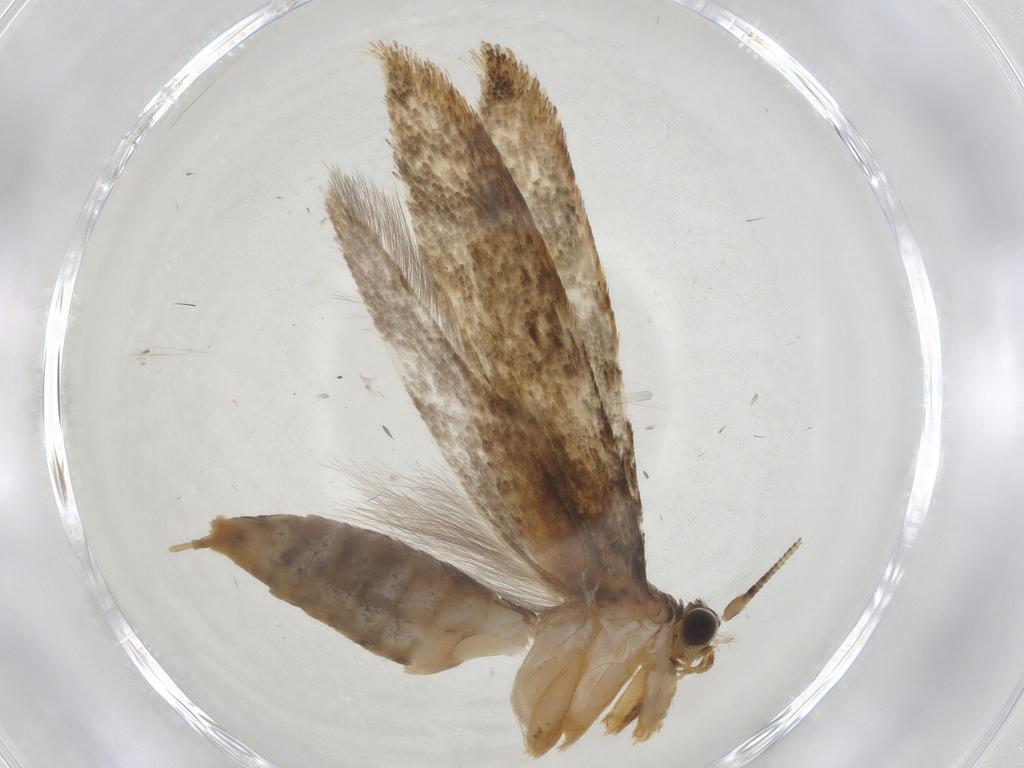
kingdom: Animalia
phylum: Arthropoda
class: Insecta
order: Lepidoptera
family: Cosmopterigidae
